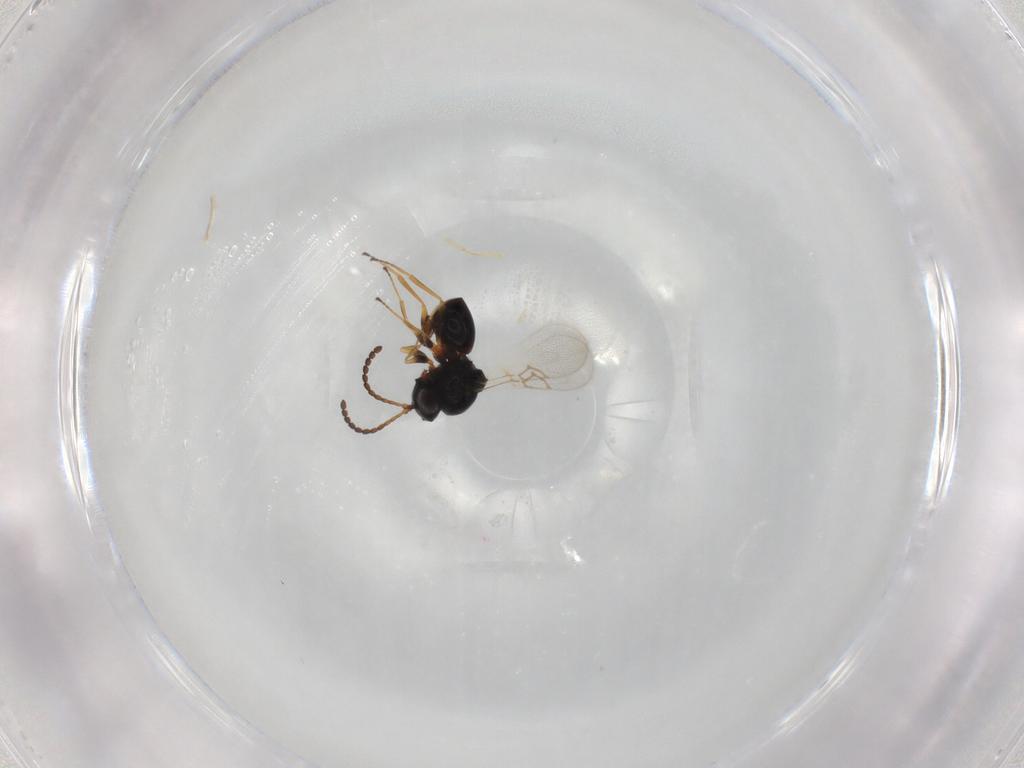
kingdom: Animalia
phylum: Arthropoda
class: Insecta
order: Hymenoptera
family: Figitidae
